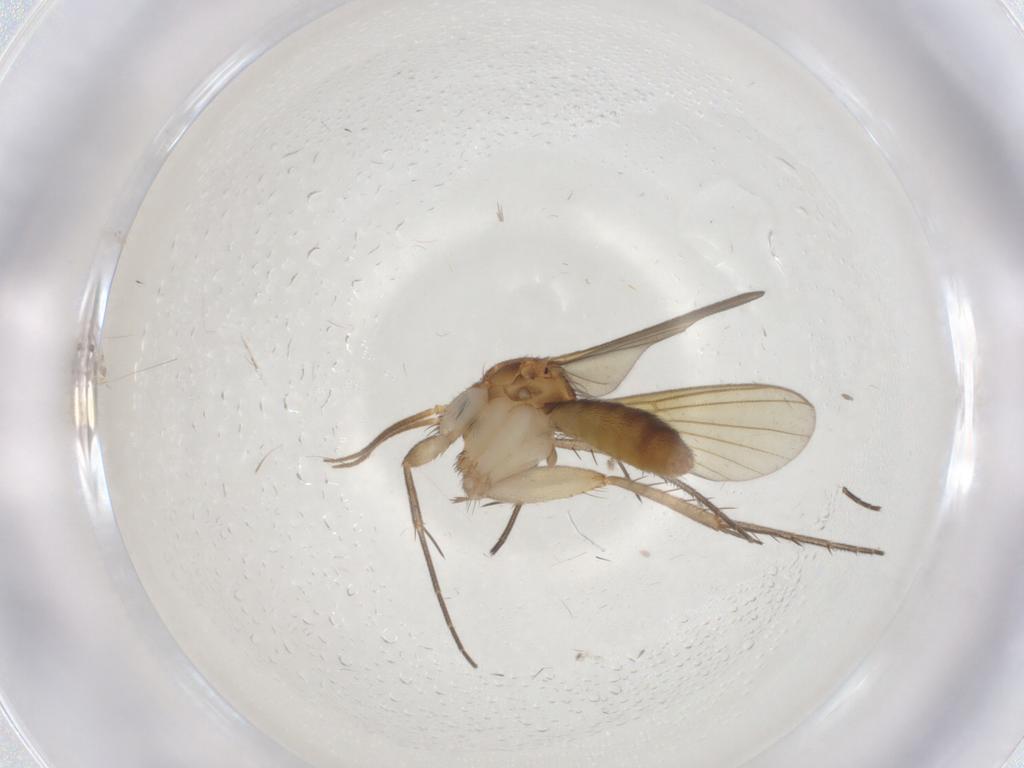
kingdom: Animalia
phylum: Arthropoda
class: Insecta
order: Diptera
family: Mycetophilidae
